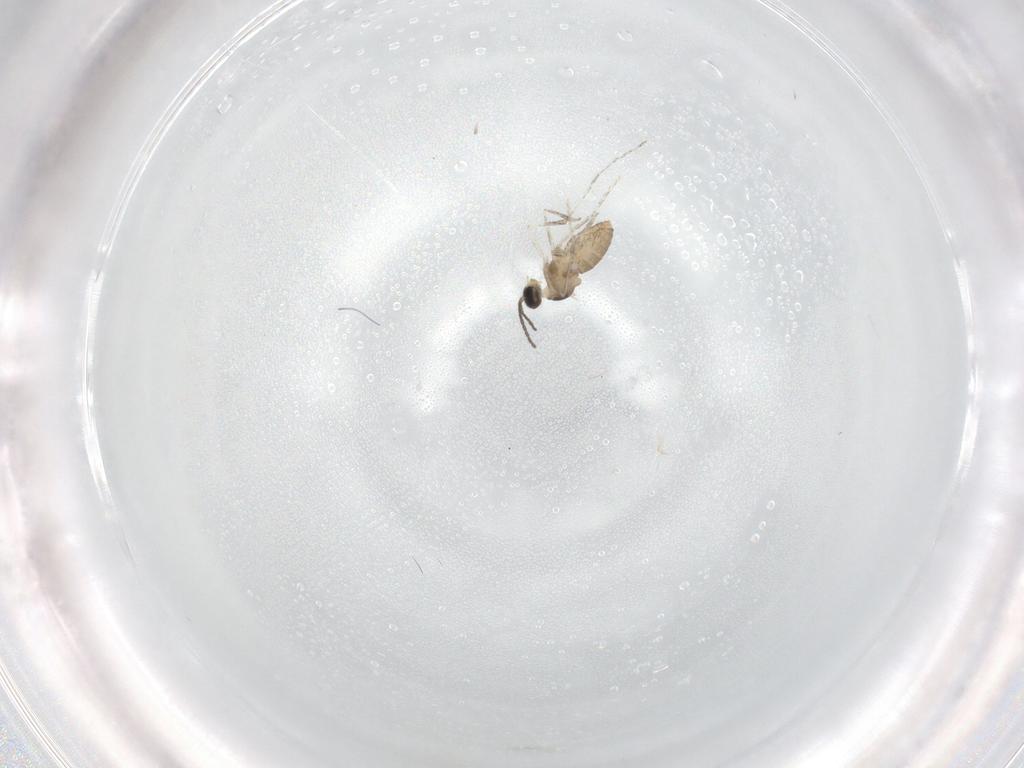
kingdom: Animalia
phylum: Arthropoda
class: Insecta
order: Diptera
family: Cecidomyiidae
